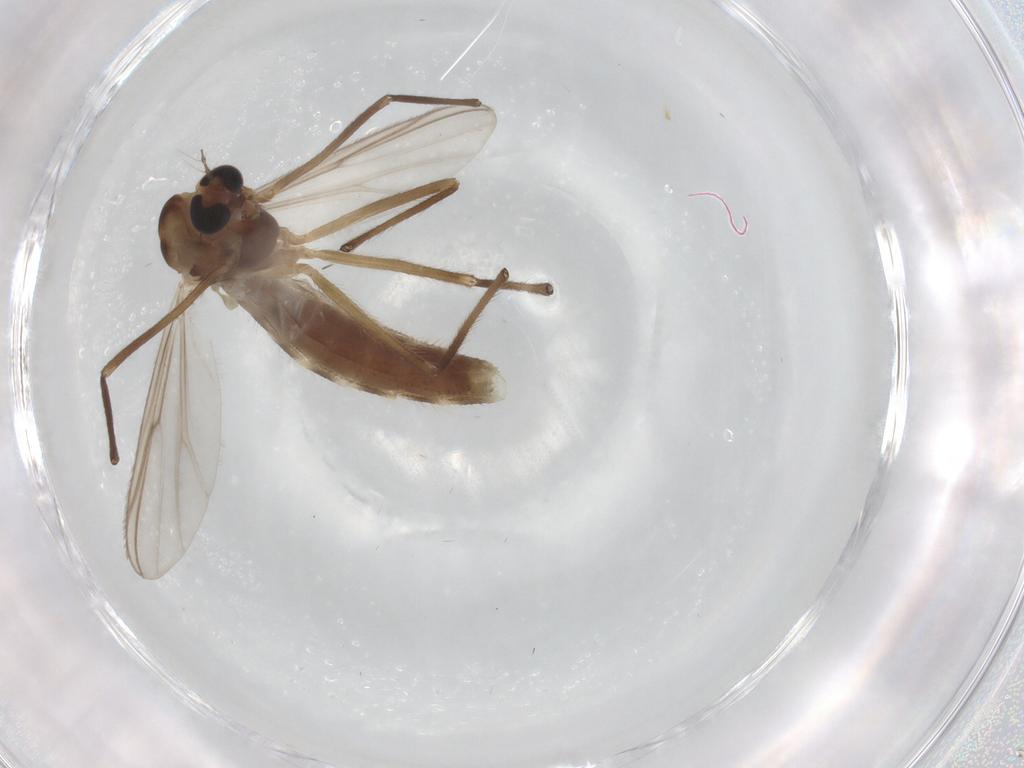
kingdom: Animalia
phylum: Arthropoda
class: Insecta
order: Diptera
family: Chironomidae
